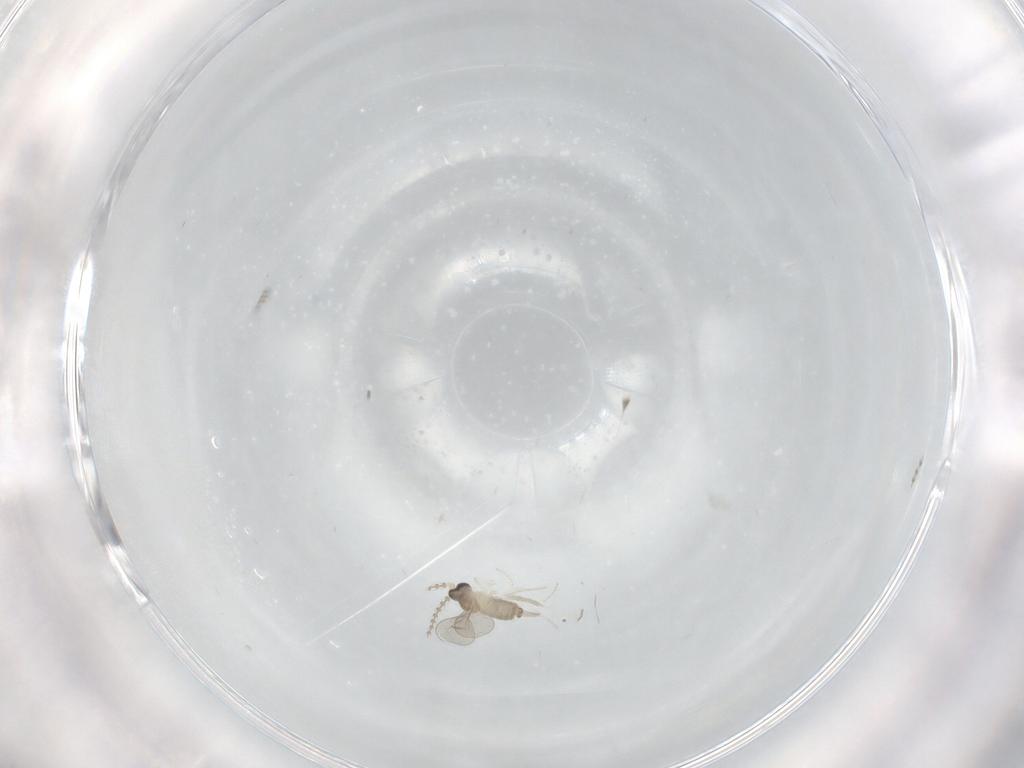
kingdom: Animalia
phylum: Arthropoda
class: Insecta
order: Diptera
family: Cecidomyiidae
